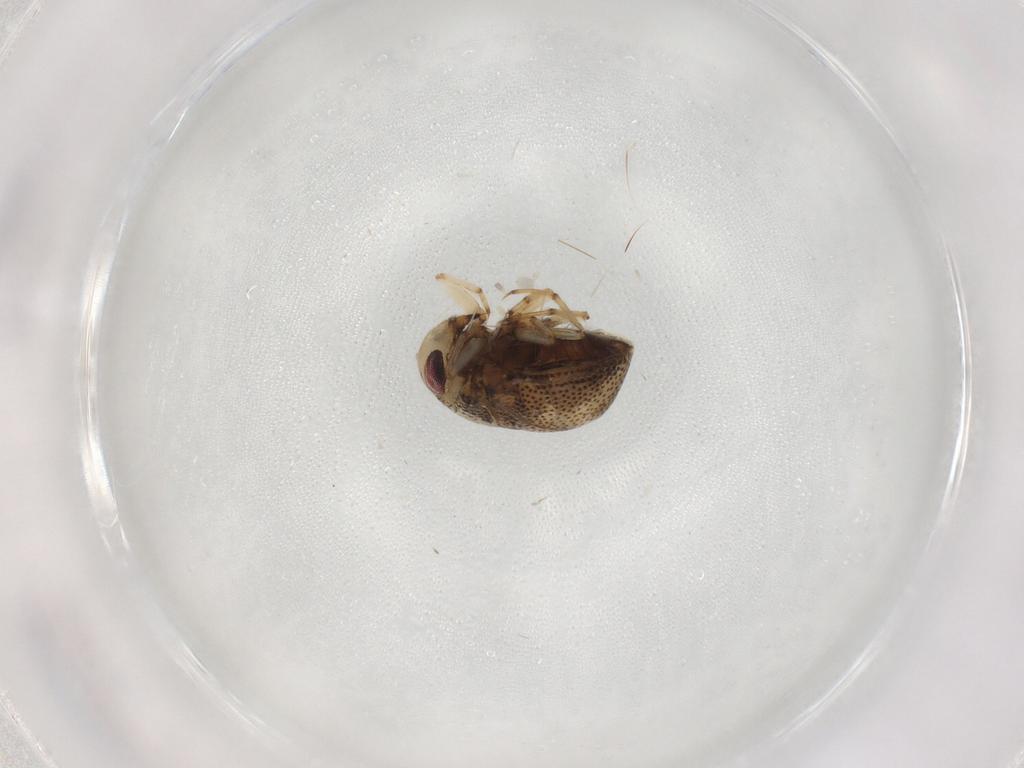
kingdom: Animalia
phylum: Arthropoda
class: Insecta
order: Hemiptera
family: Pleidae
